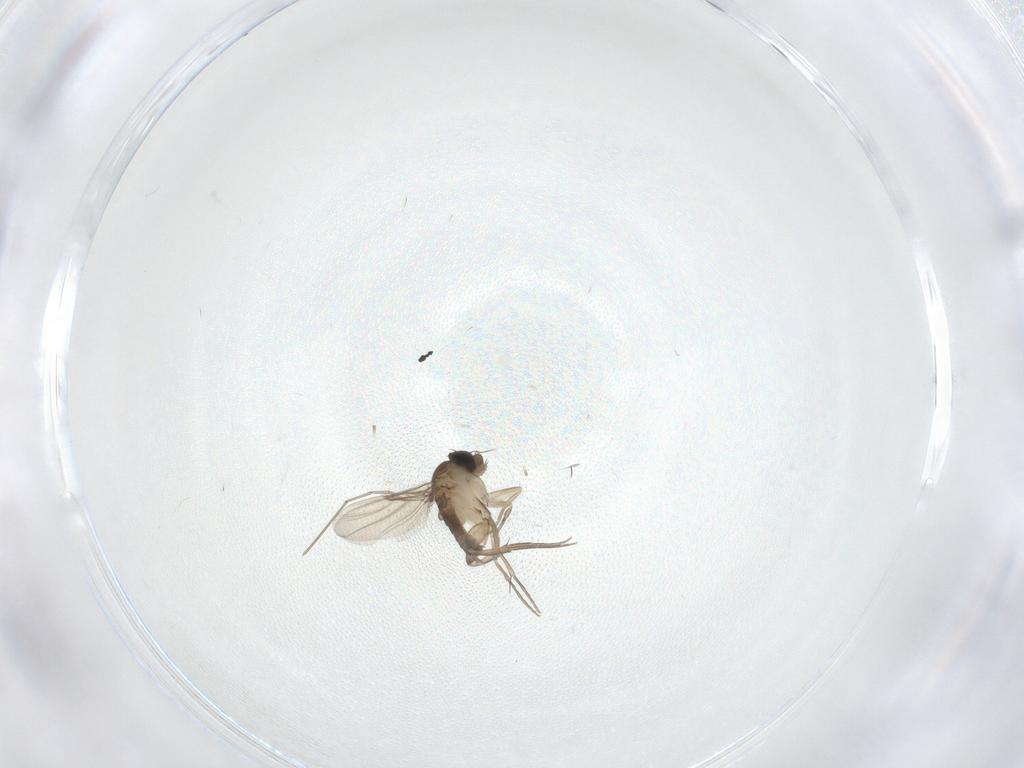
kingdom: Animalia
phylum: Arthropoda
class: Insecta
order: Diptera
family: Phoridae
